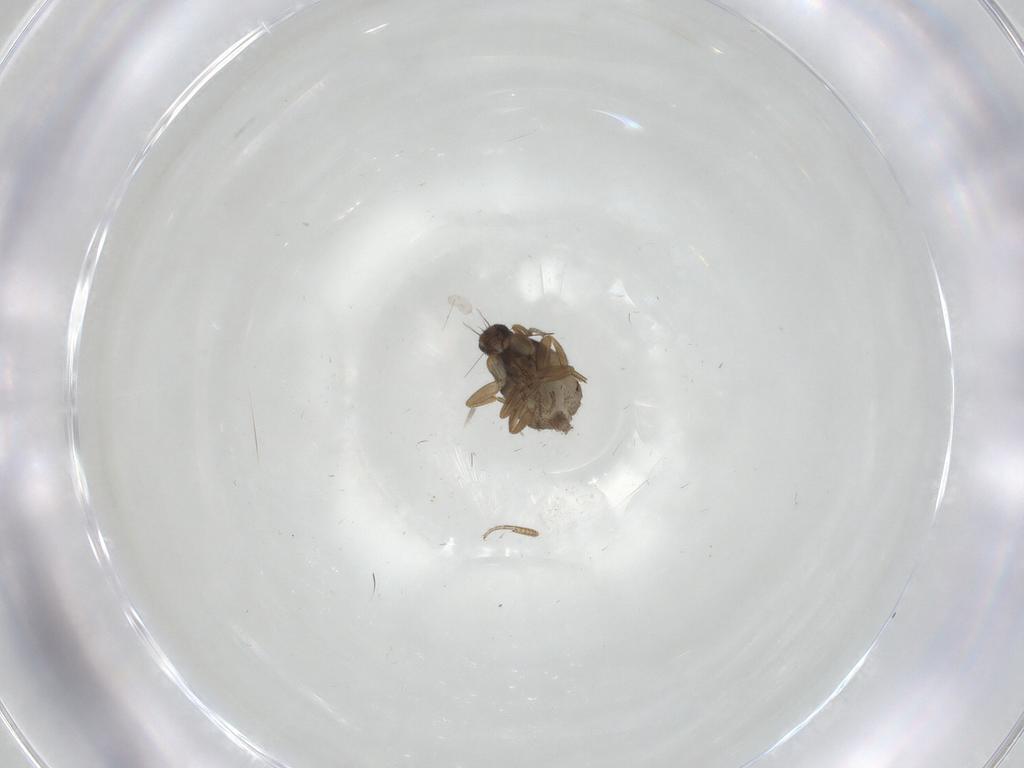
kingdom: Animalia
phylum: Arthropoda
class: Insecta
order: Diptera
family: Phoridae
